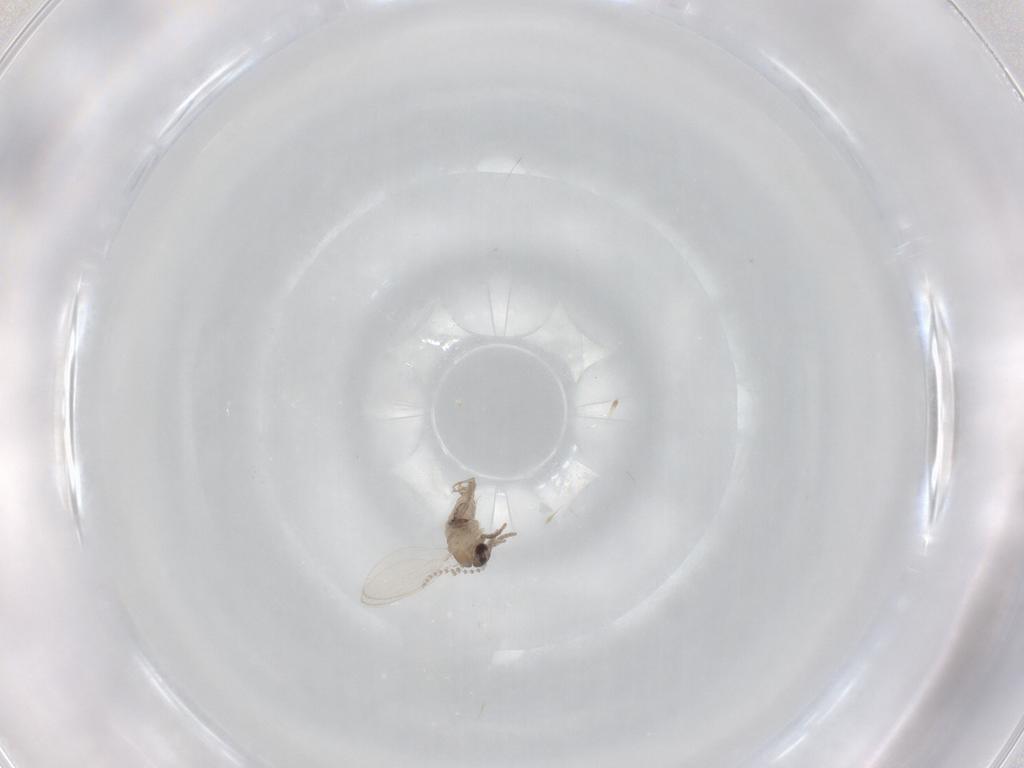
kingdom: Animalia
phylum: Arthropoda
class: Insecta
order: Diptera
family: Psychodidae
